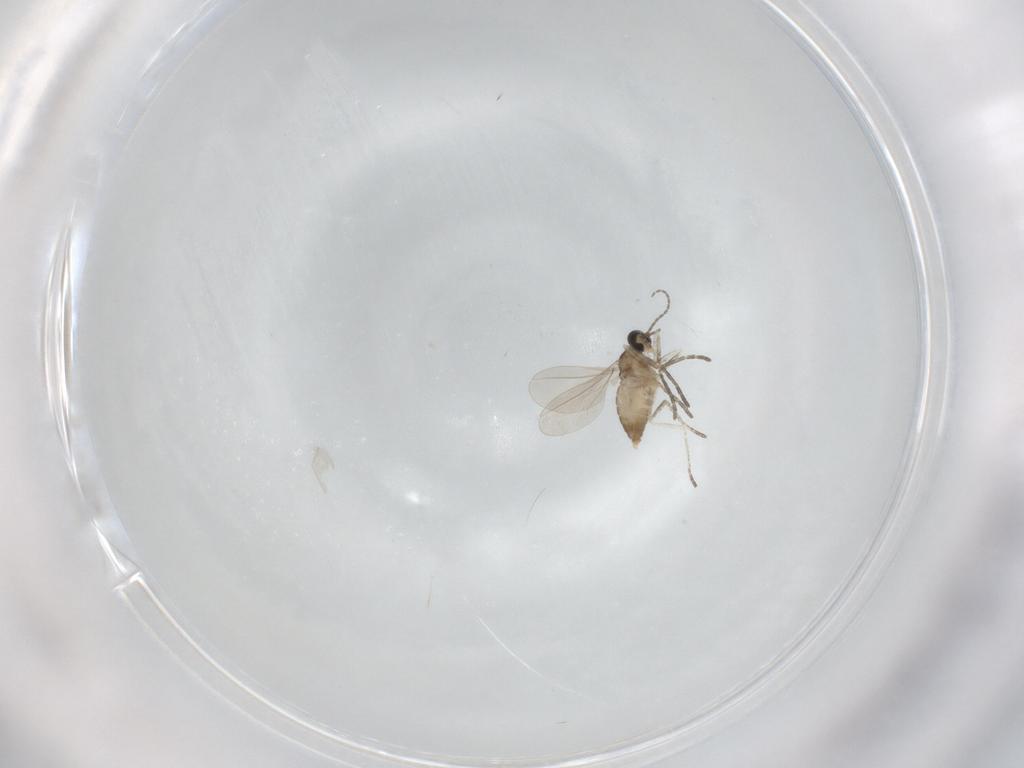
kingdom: Animalia
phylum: Arthropoda
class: Insecta
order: Diptera
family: Cecidomyiidae
